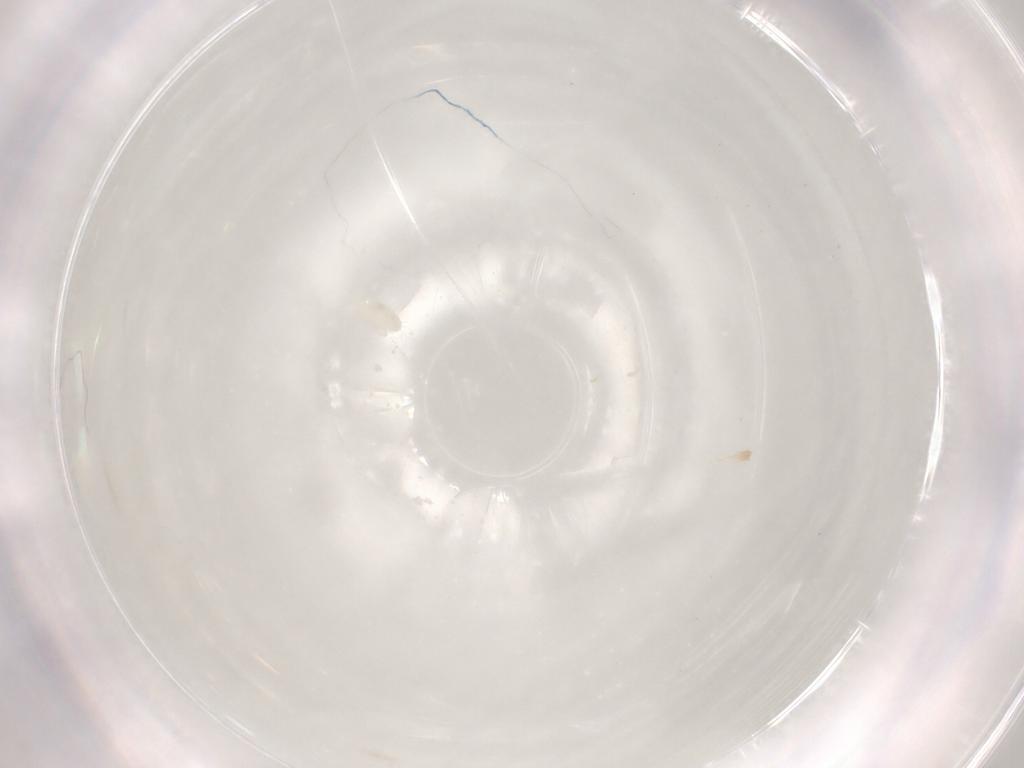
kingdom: Animalia
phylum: Arthropoda
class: Arachnida
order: Trombidiformes
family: Eupodidae
